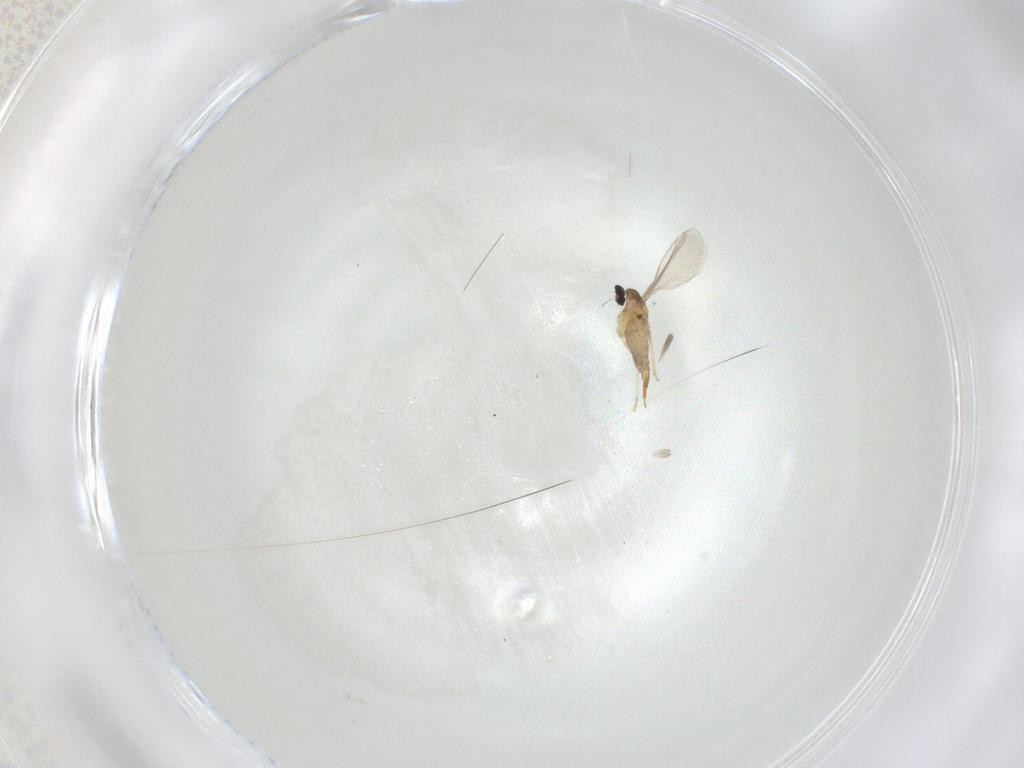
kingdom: Animalia
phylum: Arthropoda
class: Insecta
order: Diptera
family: Cecidomyiidae
